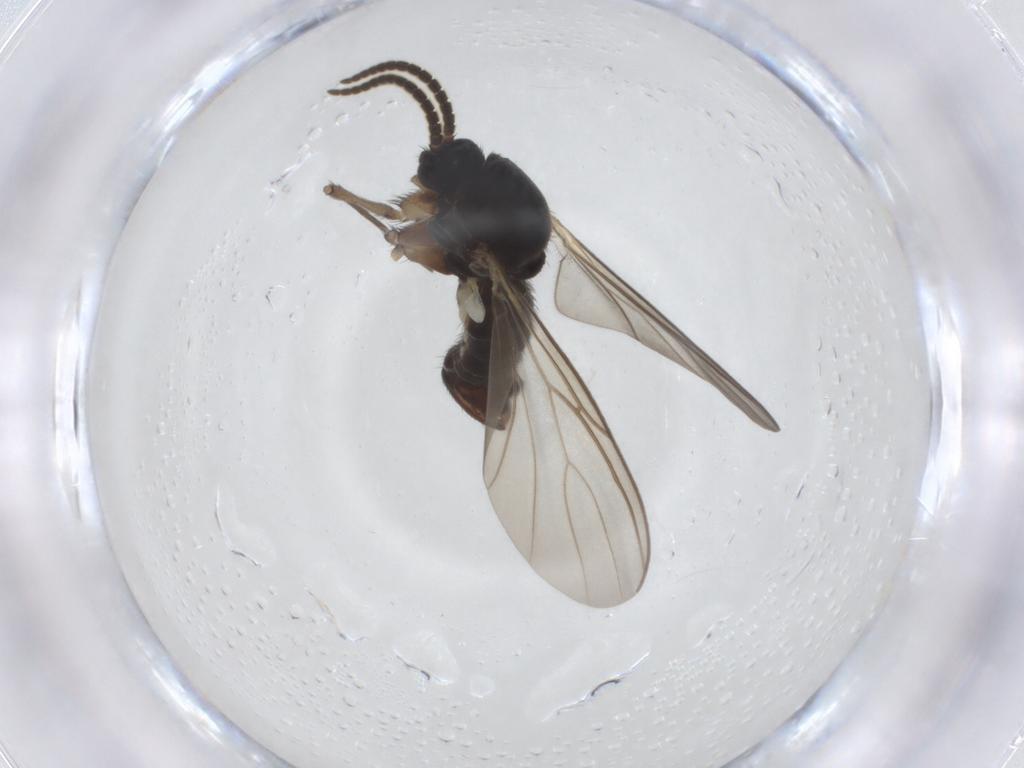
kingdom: Animalia
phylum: Arthropoda
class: Insecta
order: Diptera
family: Mycetophilidae
